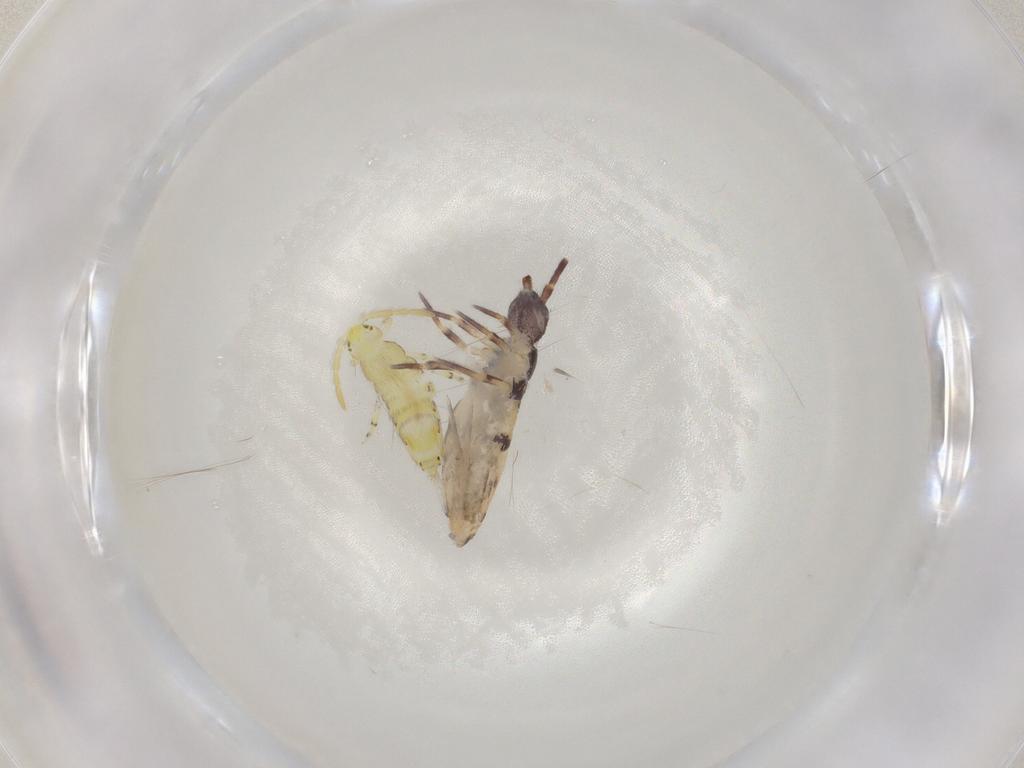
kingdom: Animalia
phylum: Arthropoda
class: Collembola
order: Entomobryomorpha
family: Entomobryidae
